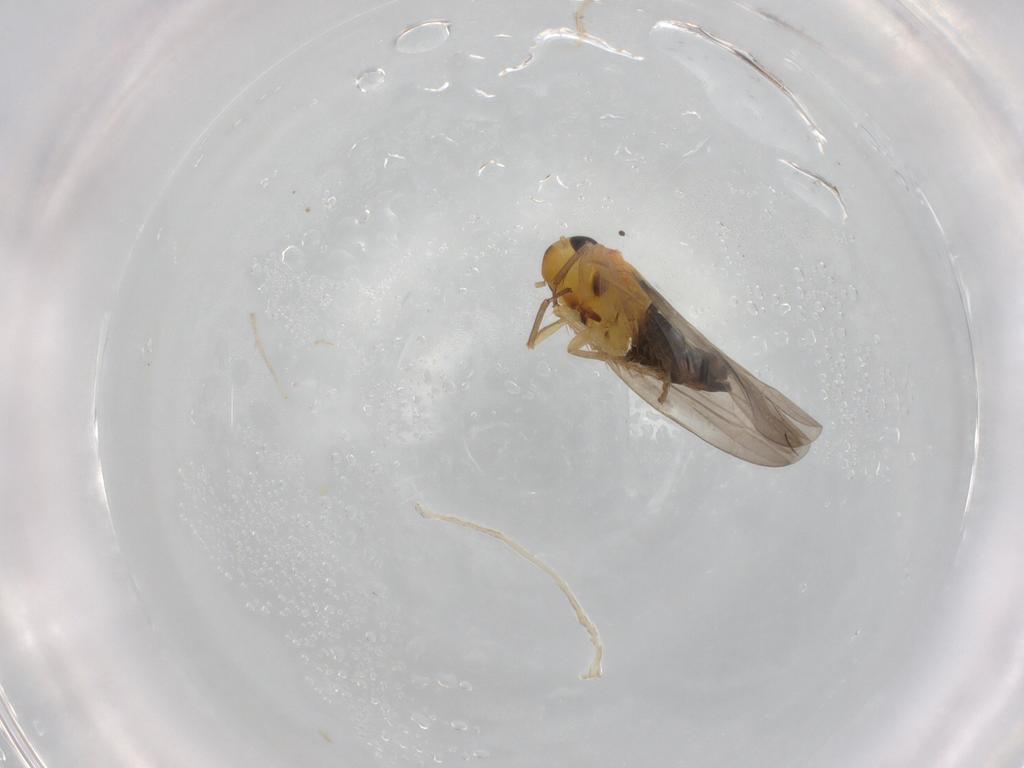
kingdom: Animalia
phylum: Arthropoda
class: Insecta
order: Hemiptera
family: Cicadellidae
